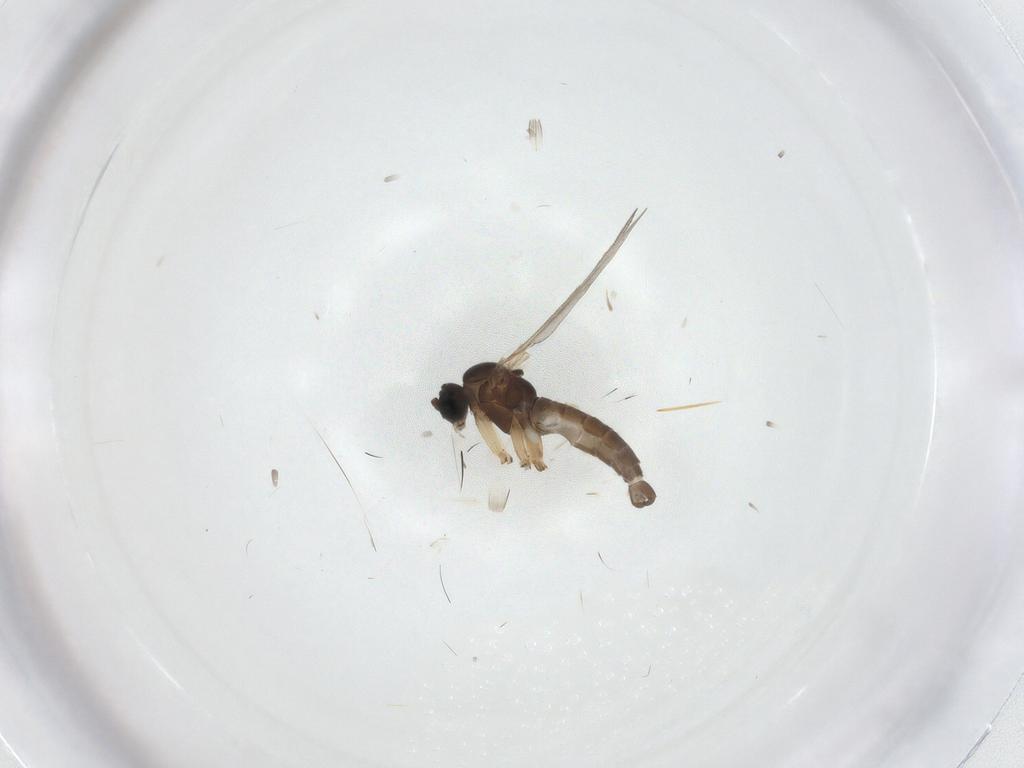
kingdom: Animalia
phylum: Arthropoda
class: Insecta
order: Diptera
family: Sciaridae
